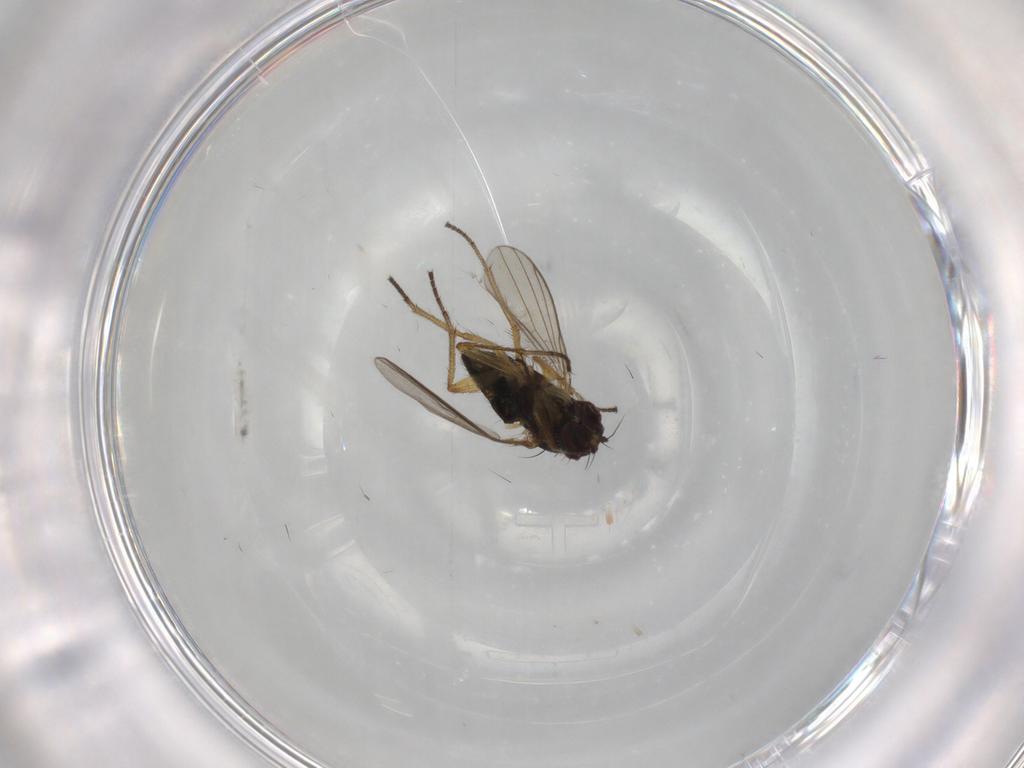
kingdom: Animalia
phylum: Arthropoda
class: Insecta
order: Diptera
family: Dolichopodidae
